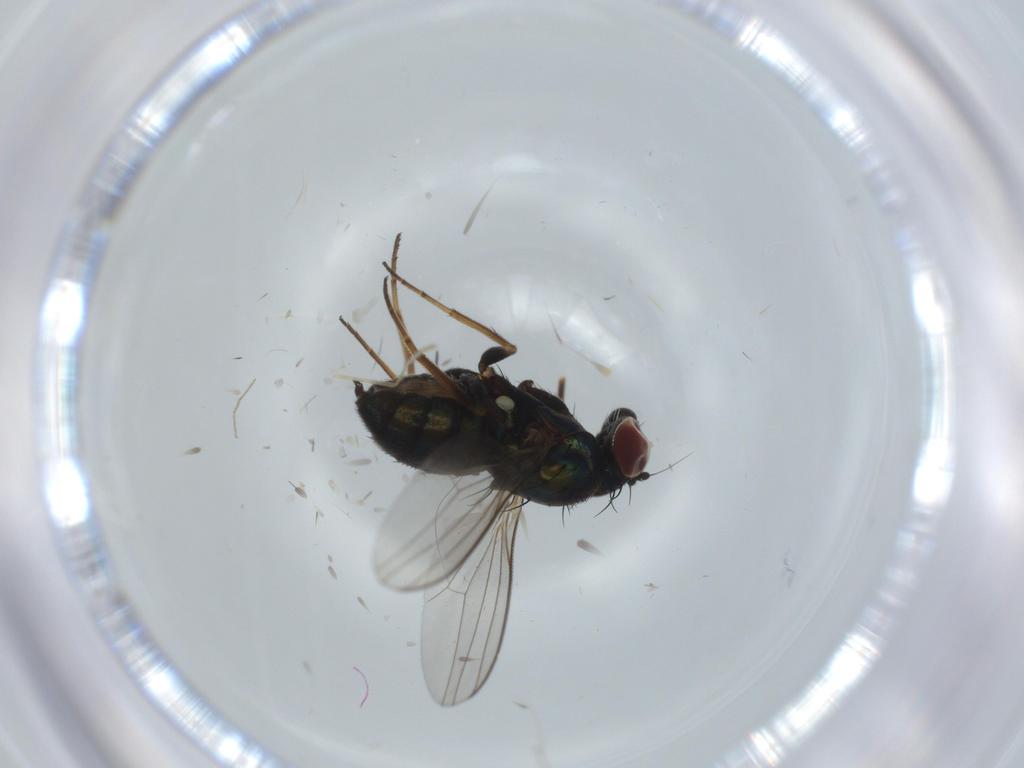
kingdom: Animalia
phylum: Arthropoda
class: Insecta
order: Diptera
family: Dolichopodidae
